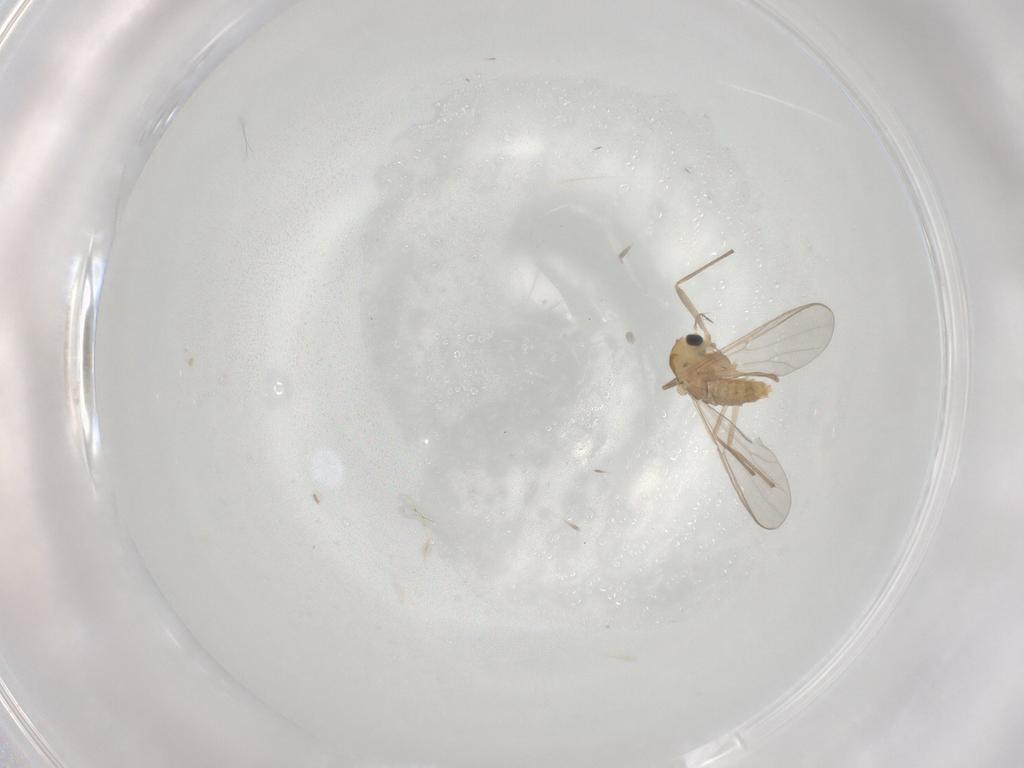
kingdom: Animalia
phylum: Arthropoda
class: Insecta
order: Diptera
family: Chironomidae
